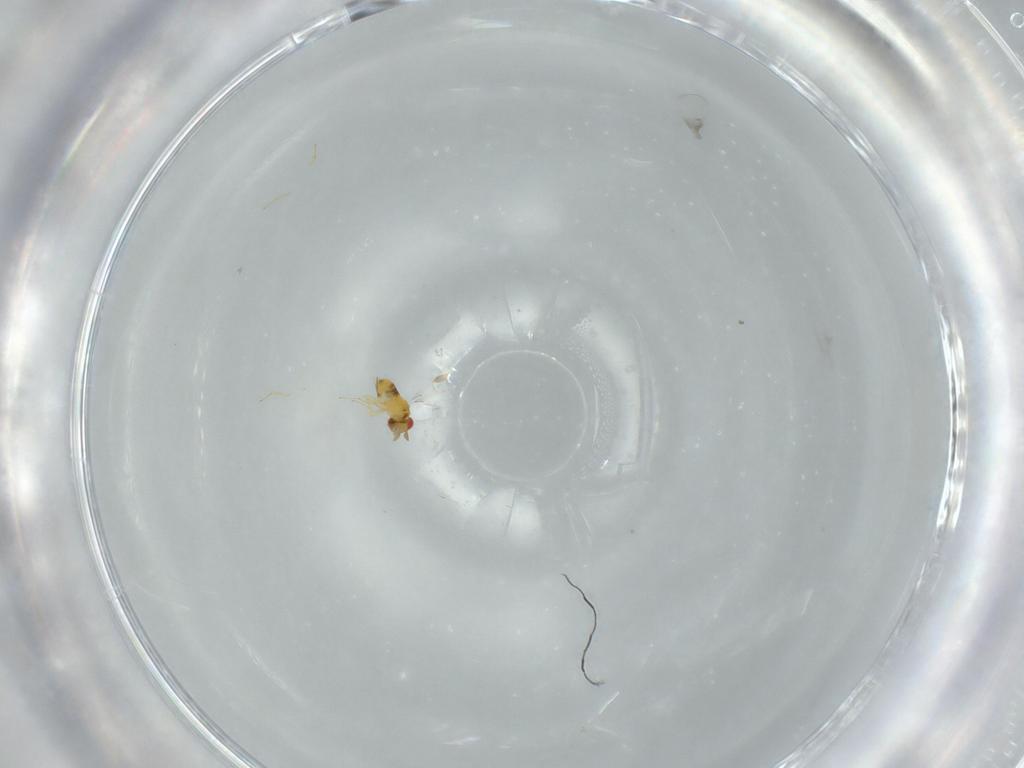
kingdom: Animalia
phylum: Arthropoda
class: Insecta
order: Hymenoptera
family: Trichogrammatidae
